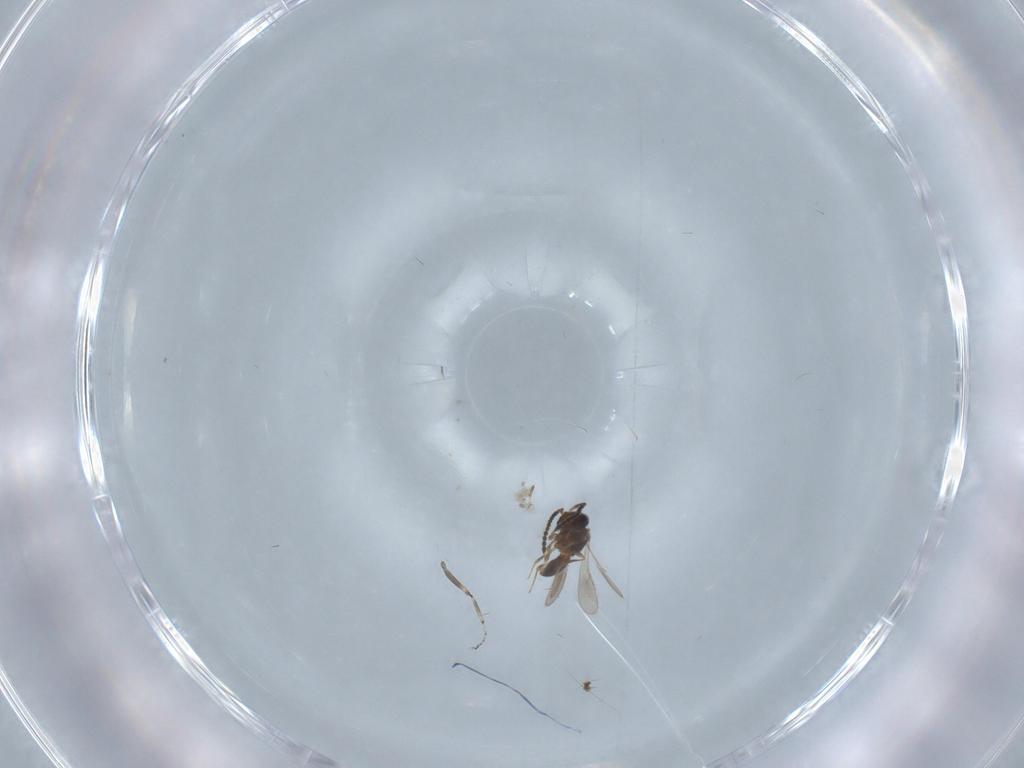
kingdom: Animalia
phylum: Arthropoda
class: Insecta
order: Hymenoptera
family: Scelionidae
